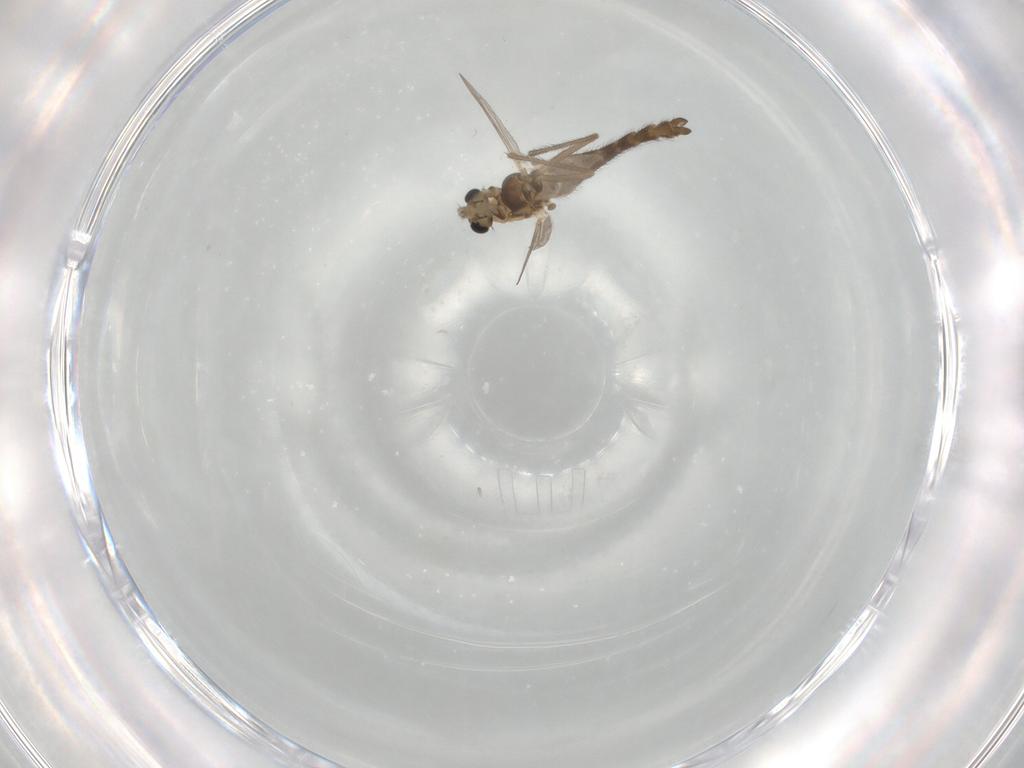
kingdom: Animalia
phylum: Arthropoda
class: Insecta
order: Diptera
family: Chironomidae
